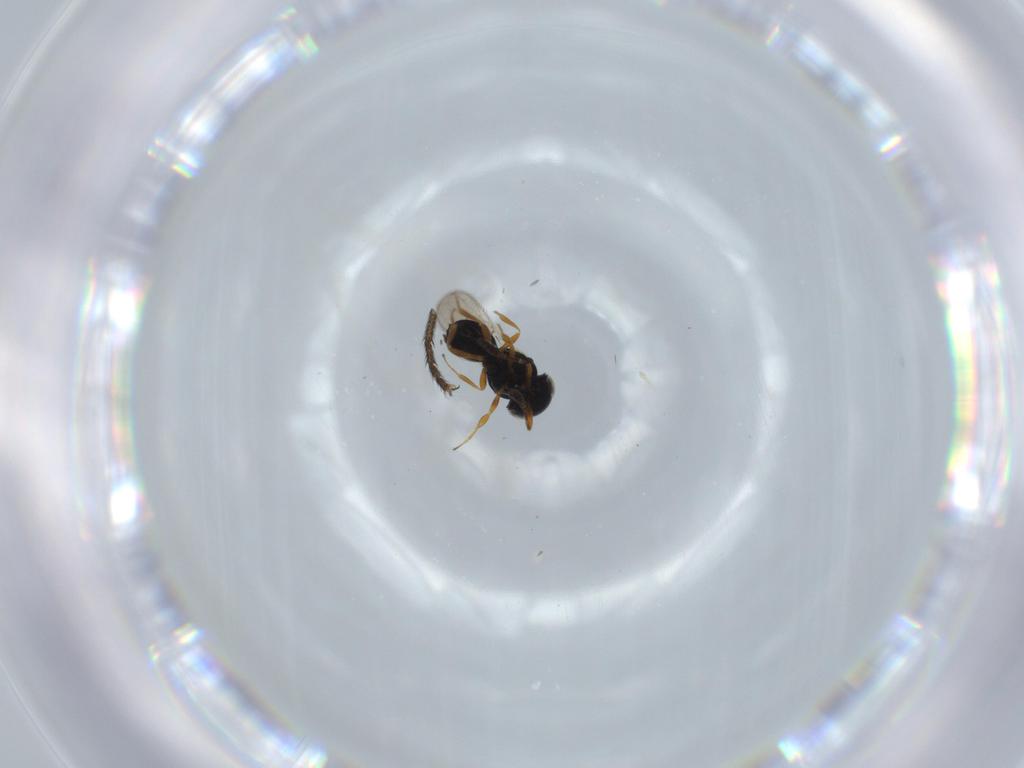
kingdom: Animalia
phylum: Arthropoda
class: Insecta
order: Hymenoptera
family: Scelionidae
